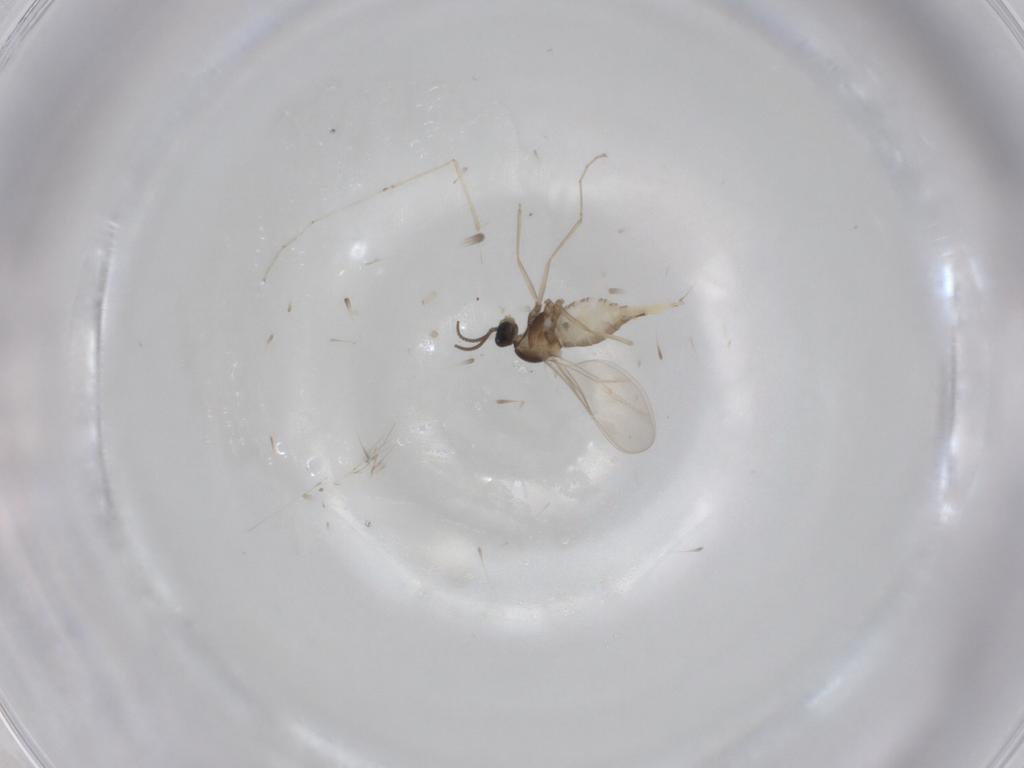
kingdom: Animalia
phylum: Arthropoda
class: Insecta
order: Diptera
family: Cecidomyiidae
